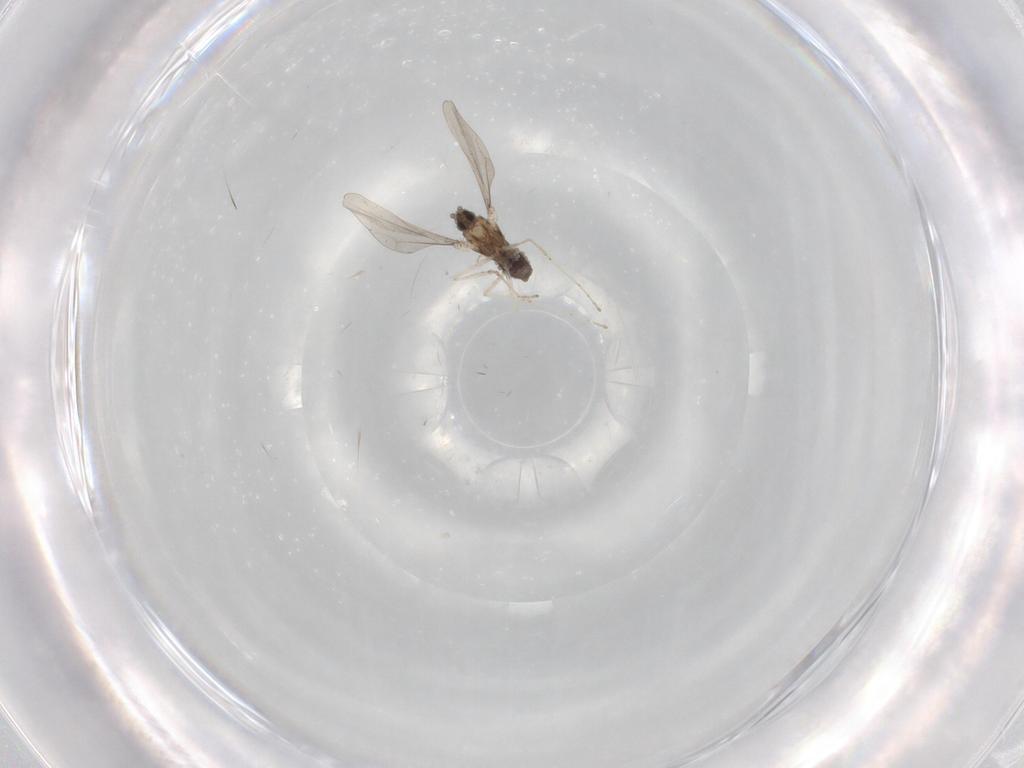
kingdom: Animalia
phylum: Arthropoda
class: Insecta
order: Diptera
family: Cecidomyiidae
